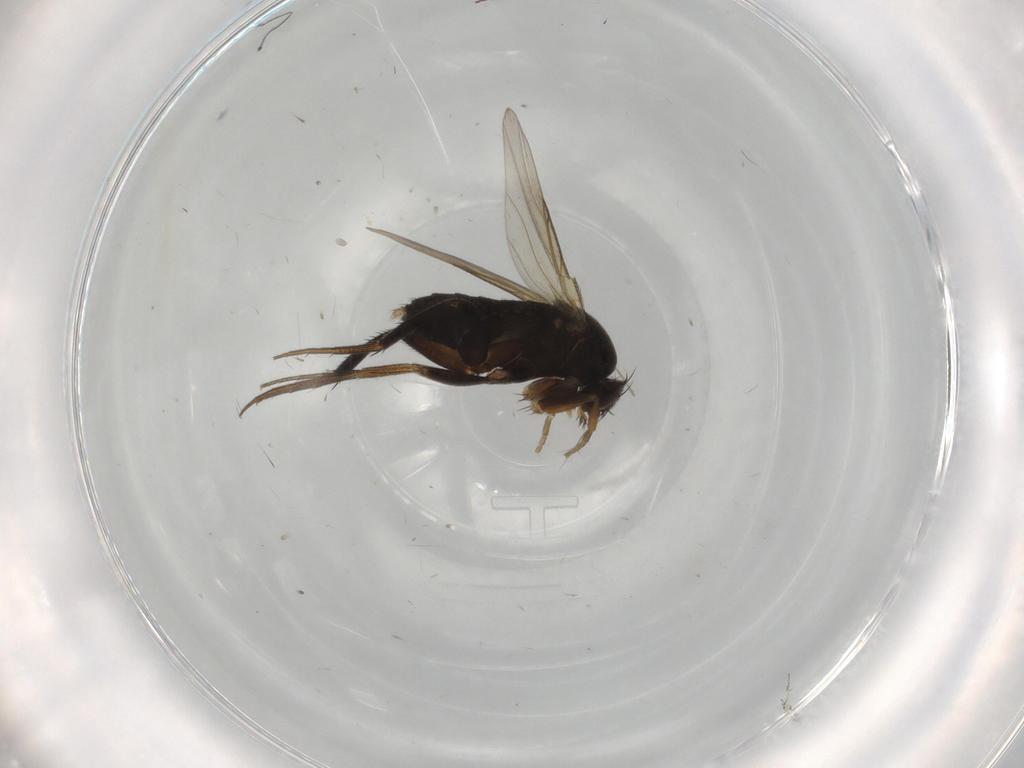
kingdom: Animalia
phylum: Arthropoda
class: Insecta
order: Diptera
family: Phoridae
